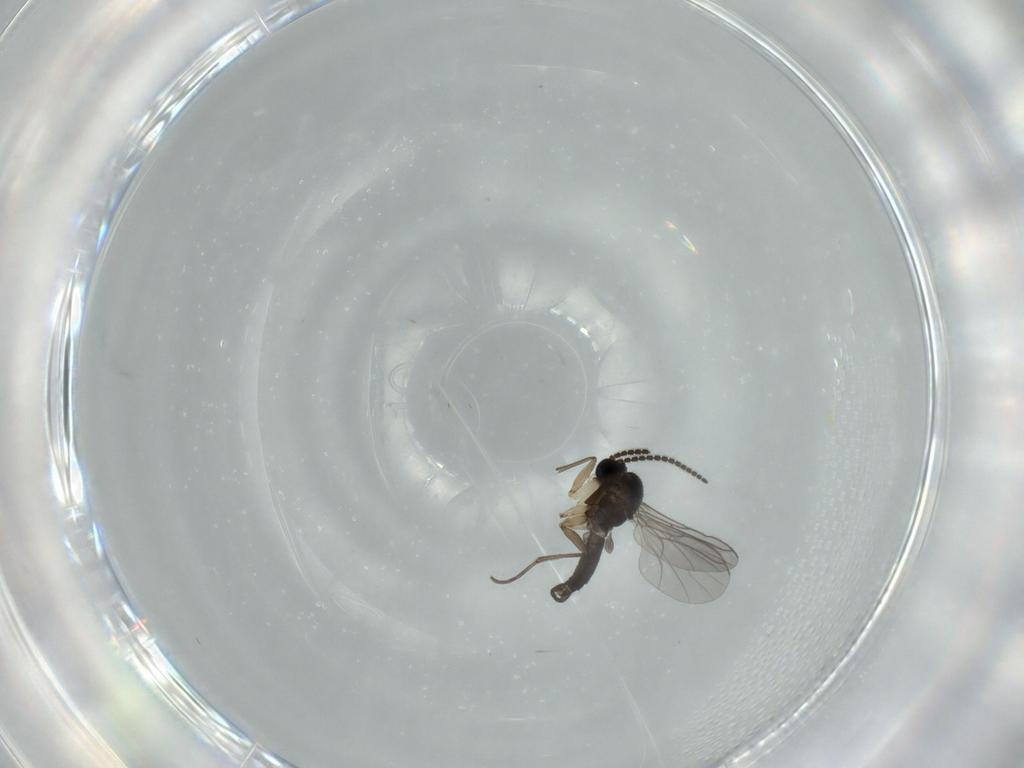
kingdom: Animalia
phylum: Arthropoda
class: Insecta
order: Diptera
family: Sciaridae
